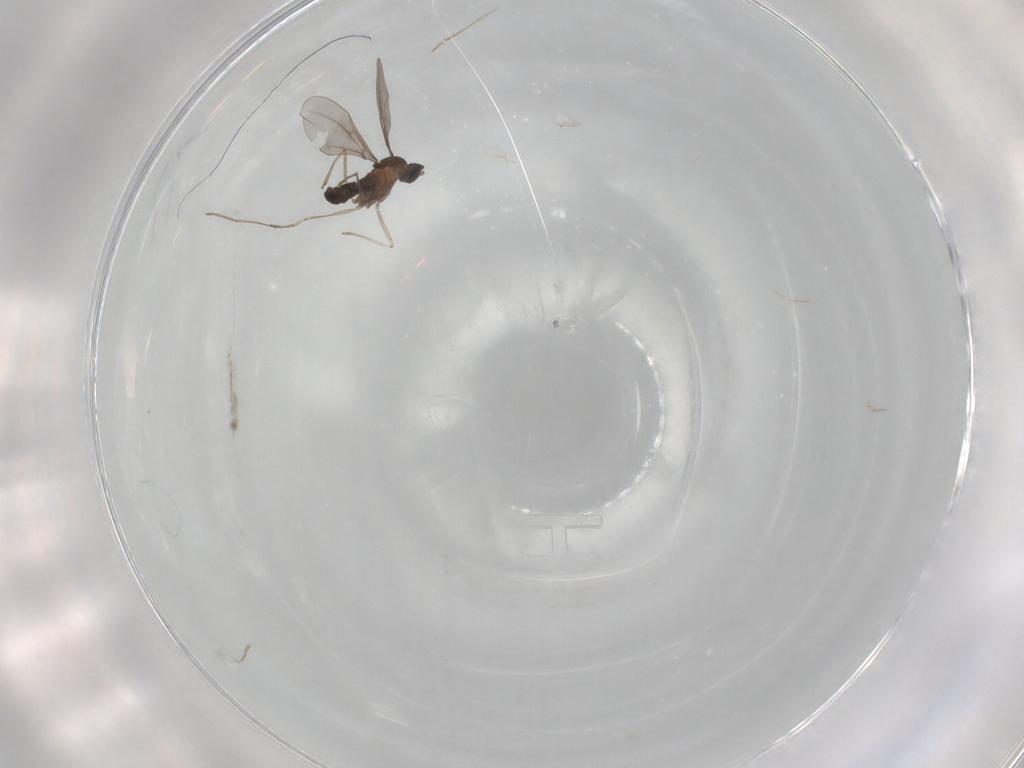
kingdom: Animalia
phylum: Arthropoda
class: Insecta
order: Diptera
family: Cecidomyiidae
